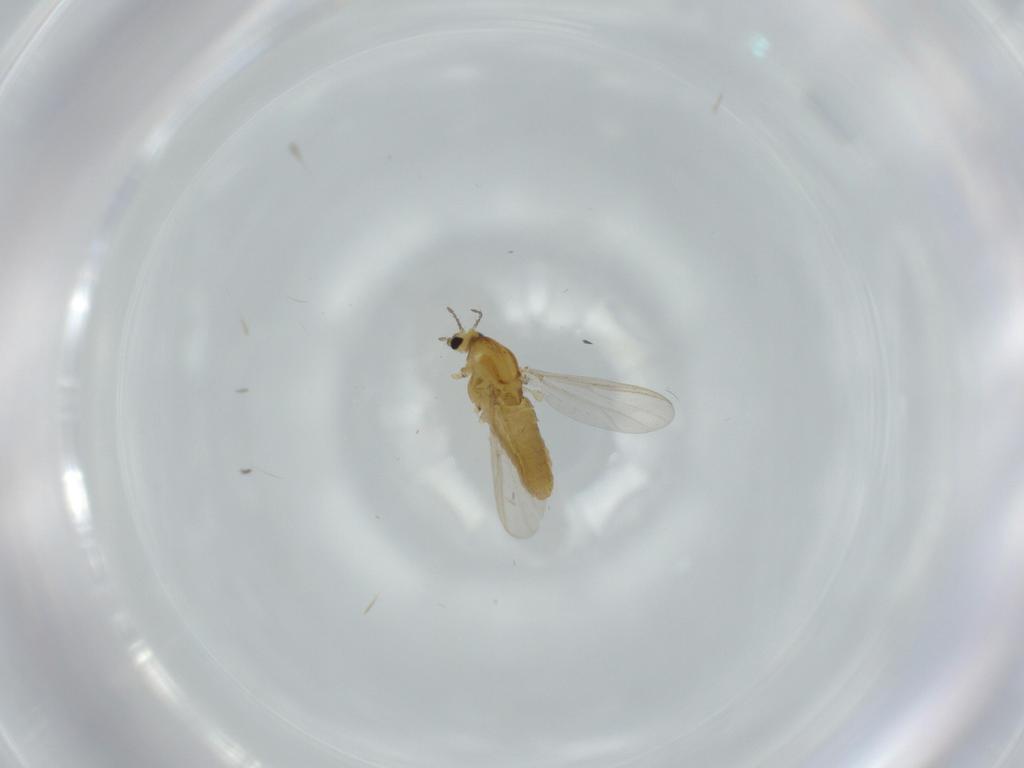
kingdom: Animalia
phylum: Arthropoda
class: Insecta
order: Diptera
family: Chironomidae
